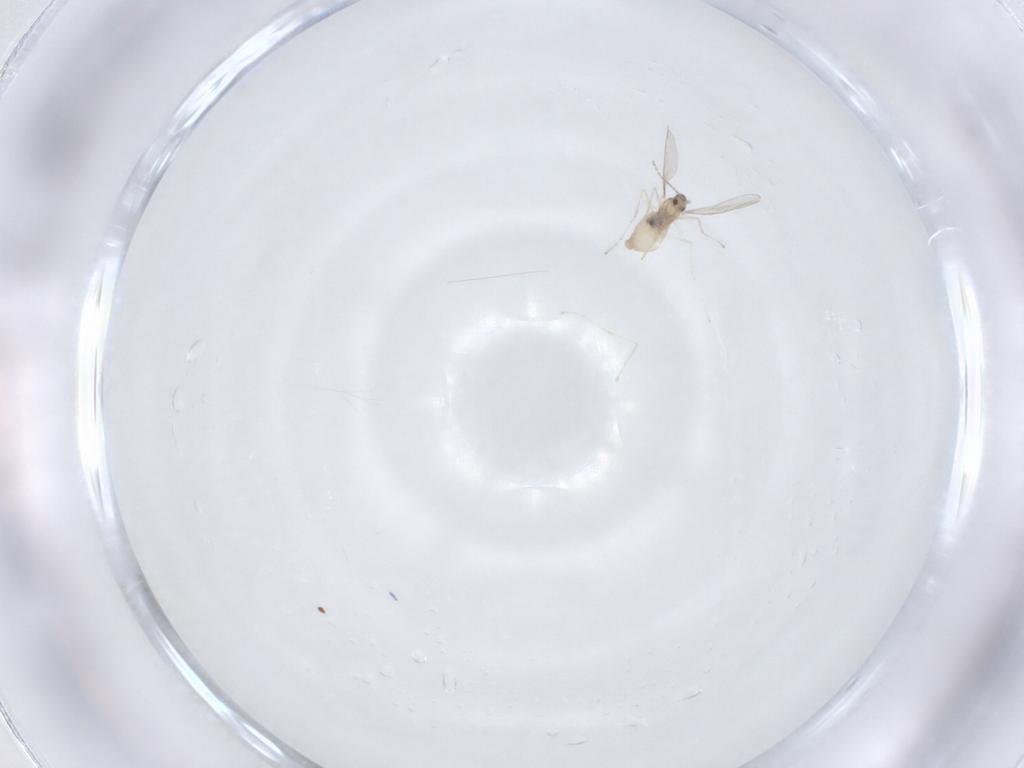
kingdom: Animalia
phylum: Arthropoda
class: Insecta
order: Diptera
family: Cecidomyiidae
